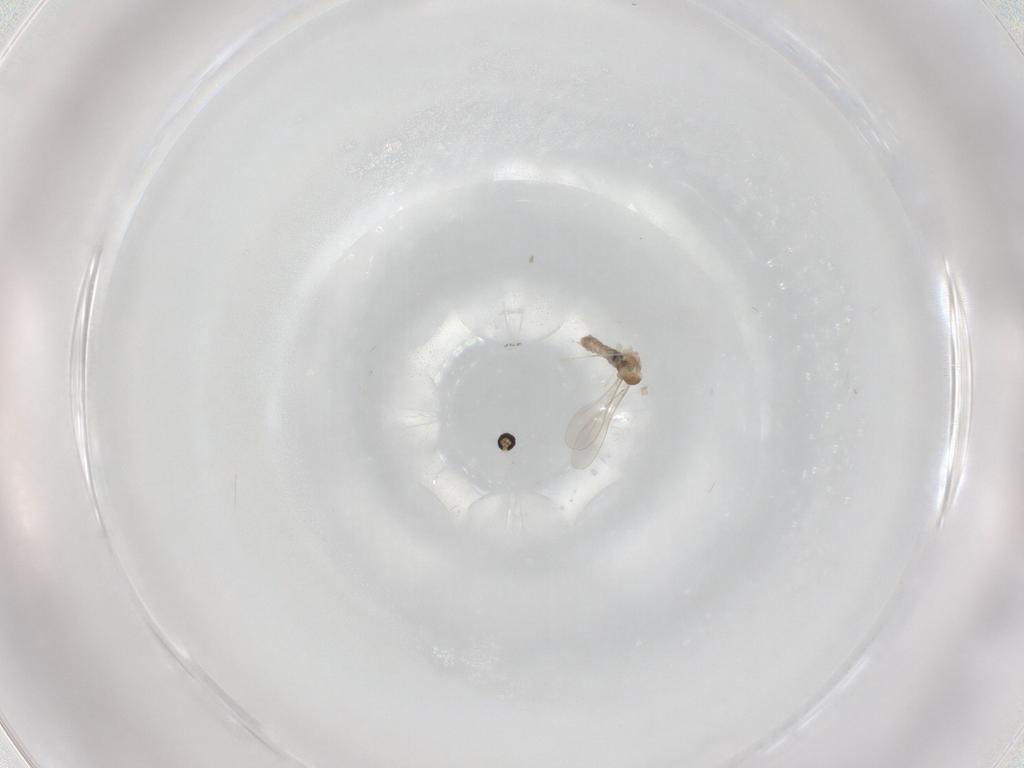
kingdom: Animalia
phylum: Arthropoda
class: Insecta
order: Diptera
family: Cecidomyiidae
